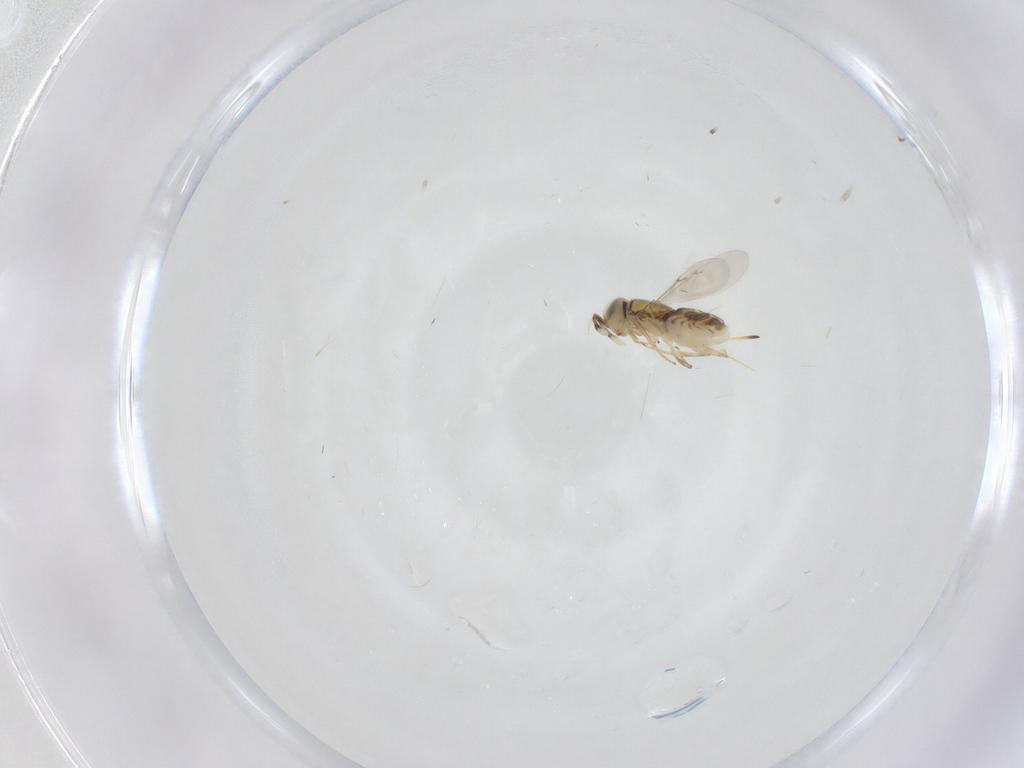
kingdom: Animalia
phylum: Arthropoda
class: Insecta
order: Hymenoptera
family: Encyrtidae
